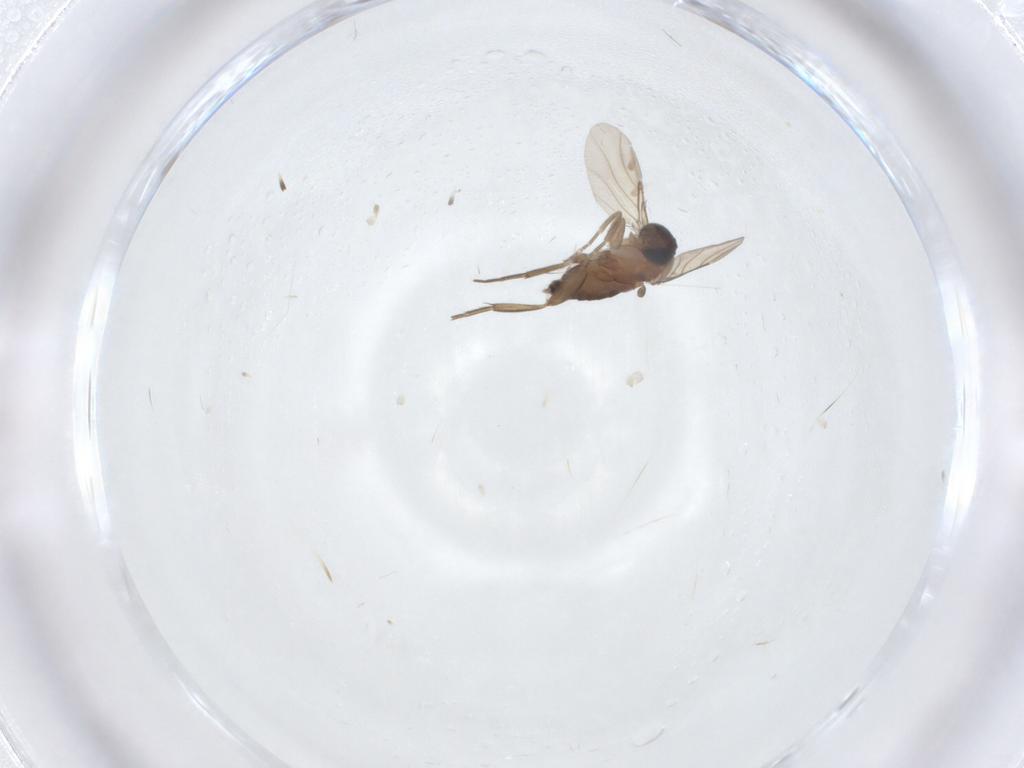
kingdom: Animalia
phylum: Arthropoda
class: Insecta
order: Diptera
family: Phoridae
